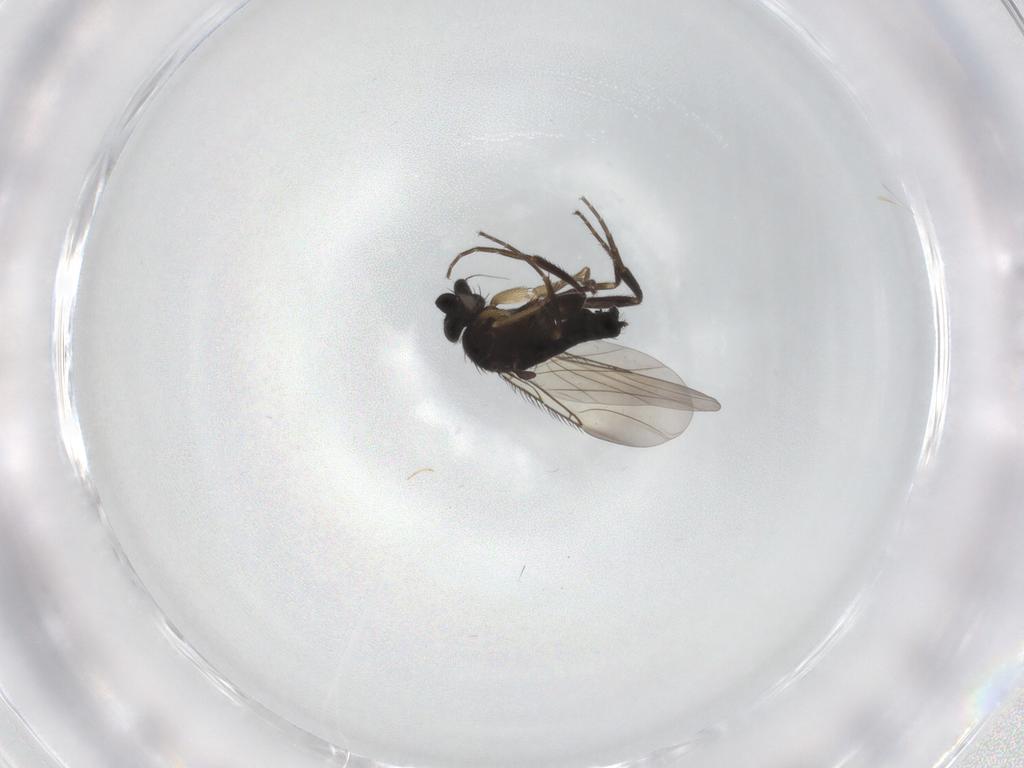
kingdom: Animalia
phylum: Arthropoda
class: Insecta
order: Diptera
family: Phoridae
